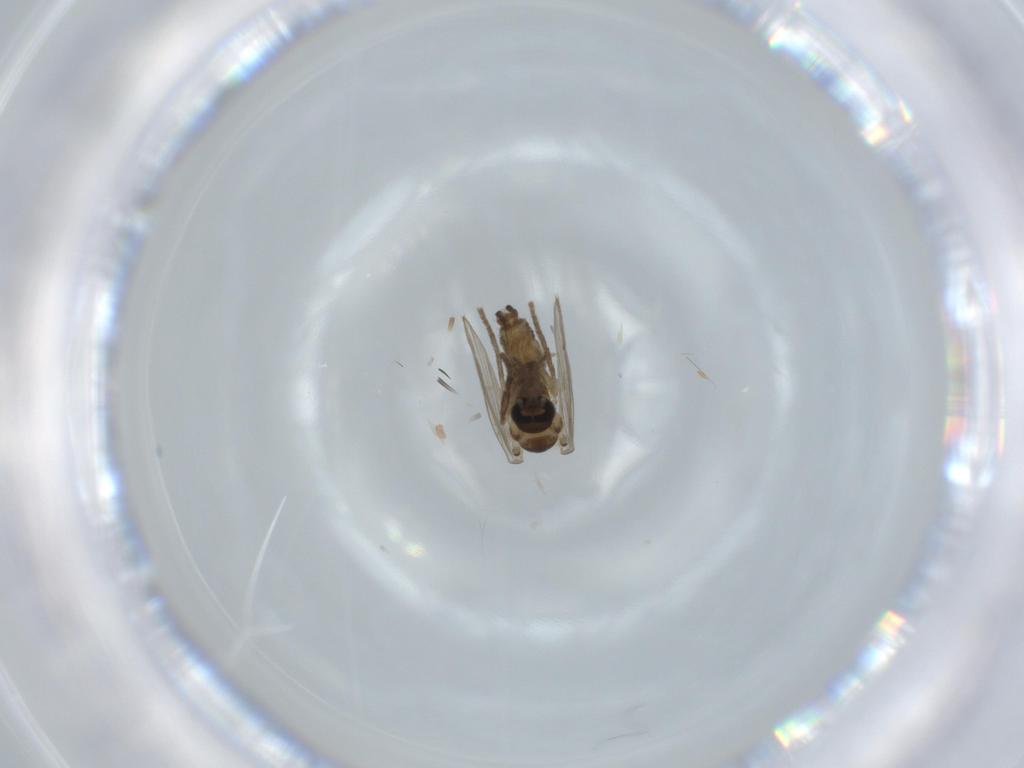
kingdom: Animalia
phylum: Arthropoda
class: Insecta
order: Diptera
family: Psychodidae
